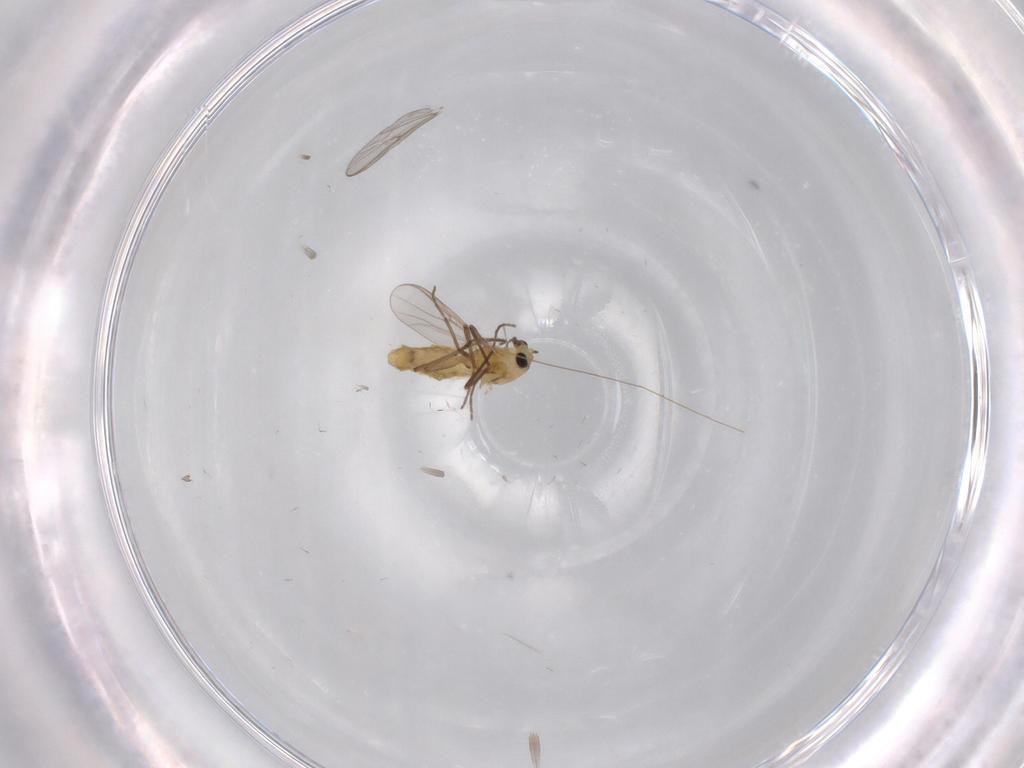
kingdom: Animalia
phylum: Arthropoda
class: Insecta
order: Diptera
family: Chironomidae
